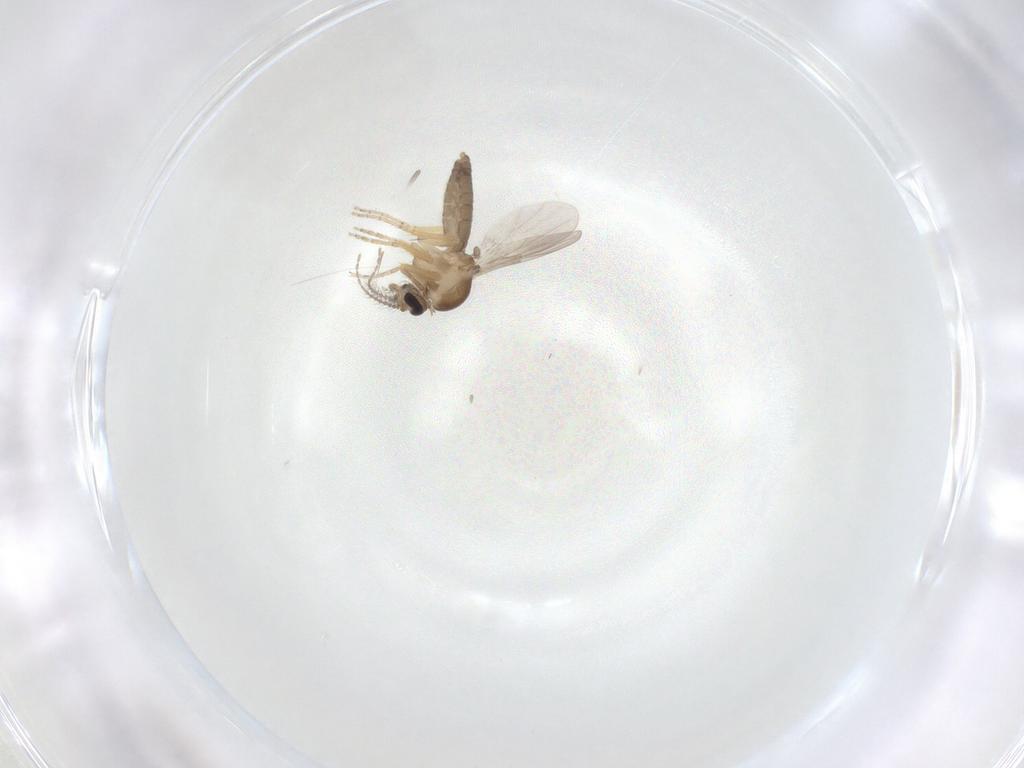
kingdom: Animalia
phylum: Arthropoda
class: Insecta
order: Diptera
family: Ceratopogonidae
